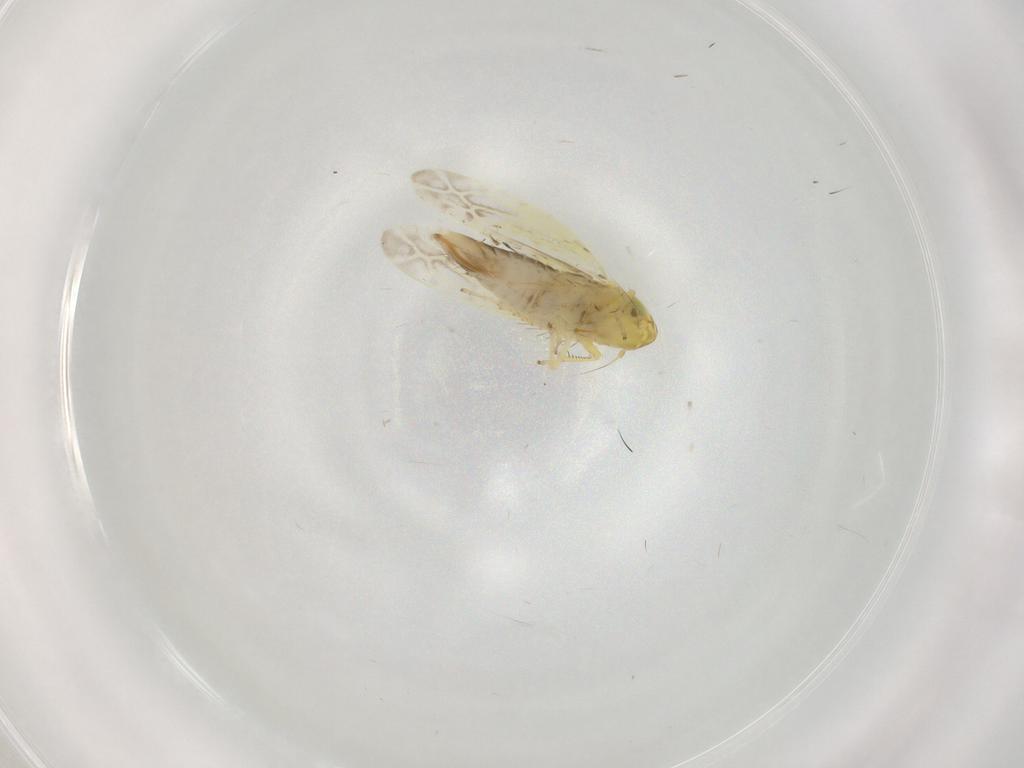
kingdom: Animalia
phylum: Arthropoda
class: Insecta
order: Hemiptera
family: Cicadellidae
